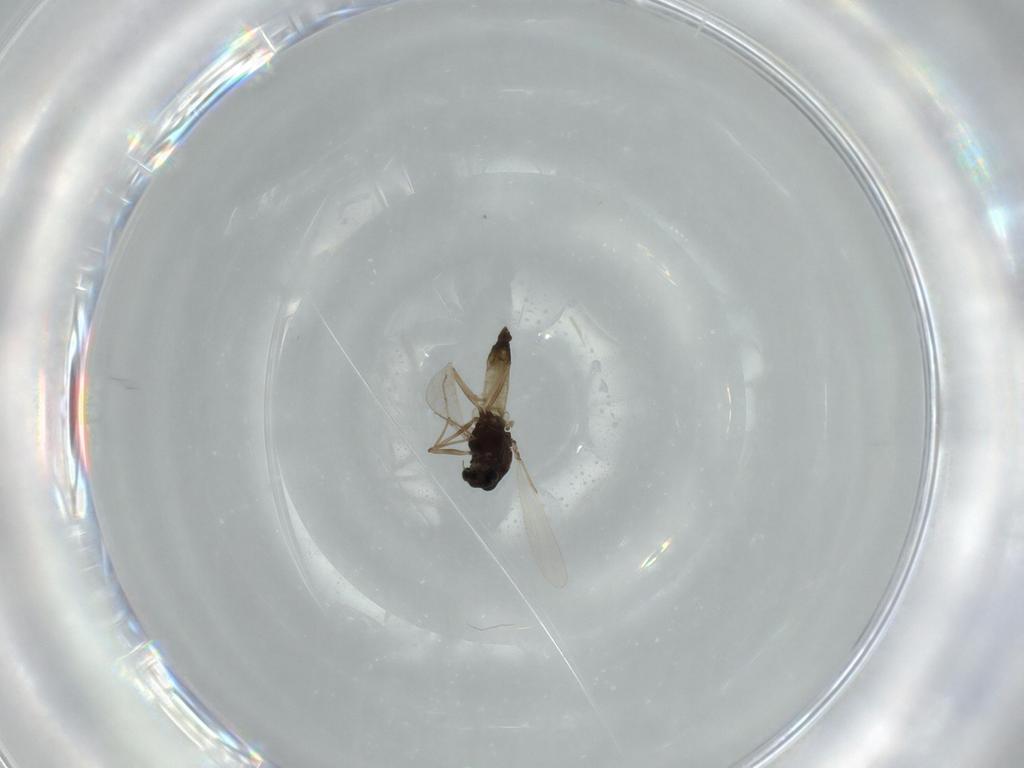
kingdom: Animalia
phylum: Arthropoda
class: Insecta
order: Diptera
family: Chironomidae
